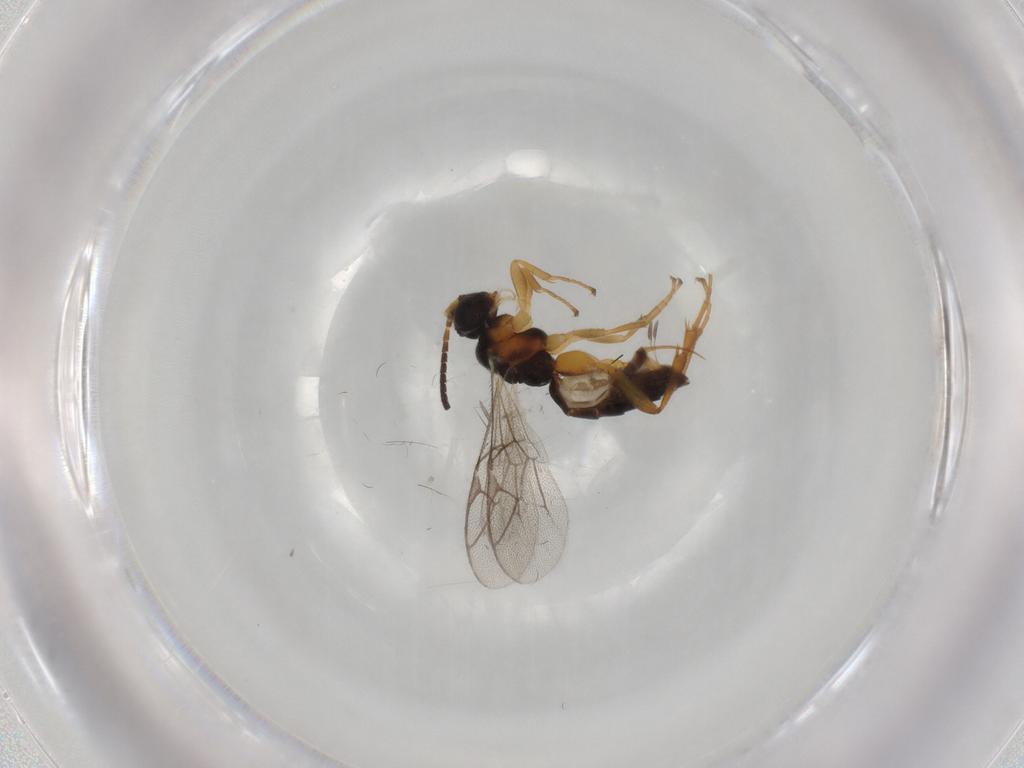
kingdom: Animalia
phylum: Arthropoda
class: Insecta
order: Hymenoptera
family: Ichneumonidae
